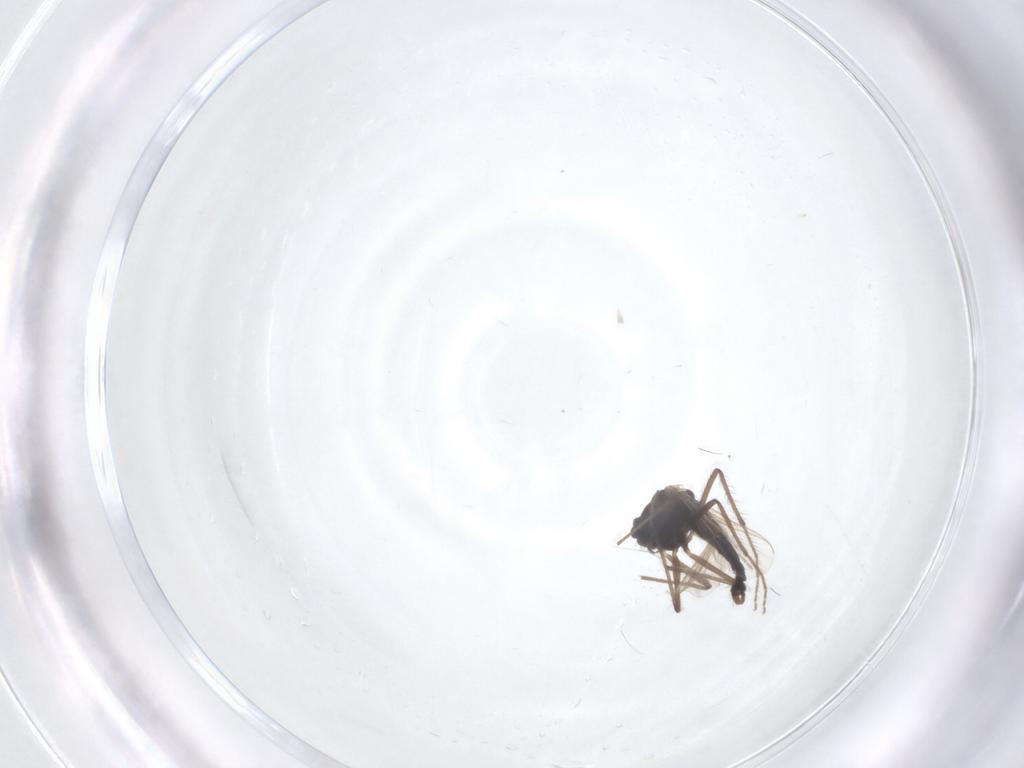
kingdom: Animalia
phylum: Arthropoda
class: Insecta
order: Diptera
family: Chironomidae
